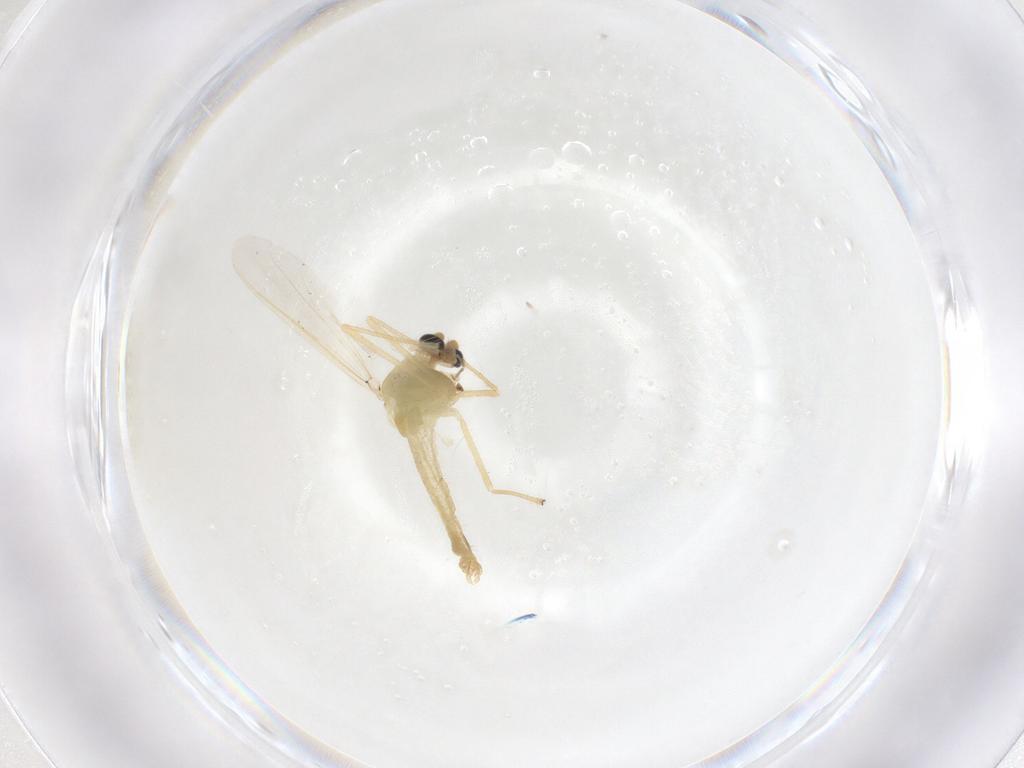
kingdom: Animalia
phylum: Arthropoda
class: Insecta
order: Diptera
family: Chironomidae
